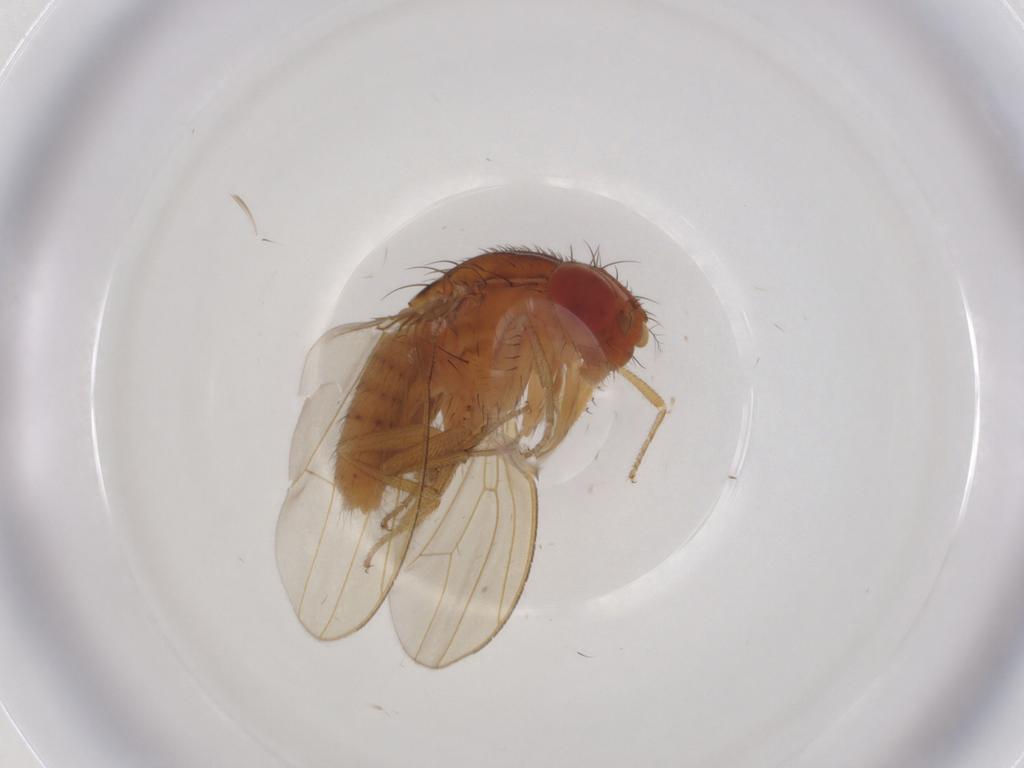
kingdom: Animalia
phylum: Arthropoda
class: Insecta
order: Diptera
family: Drosophilidae
